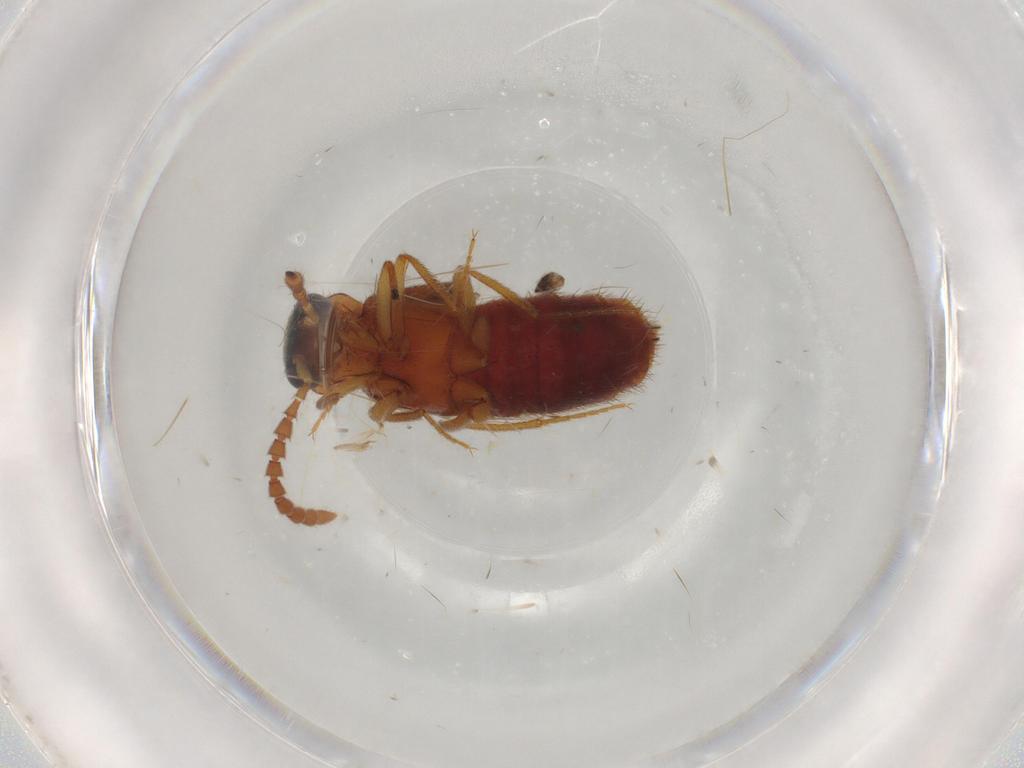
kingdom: Animalia
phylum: Arthropoda
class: Insecta
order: Coleoptera
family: Staphylinidae
